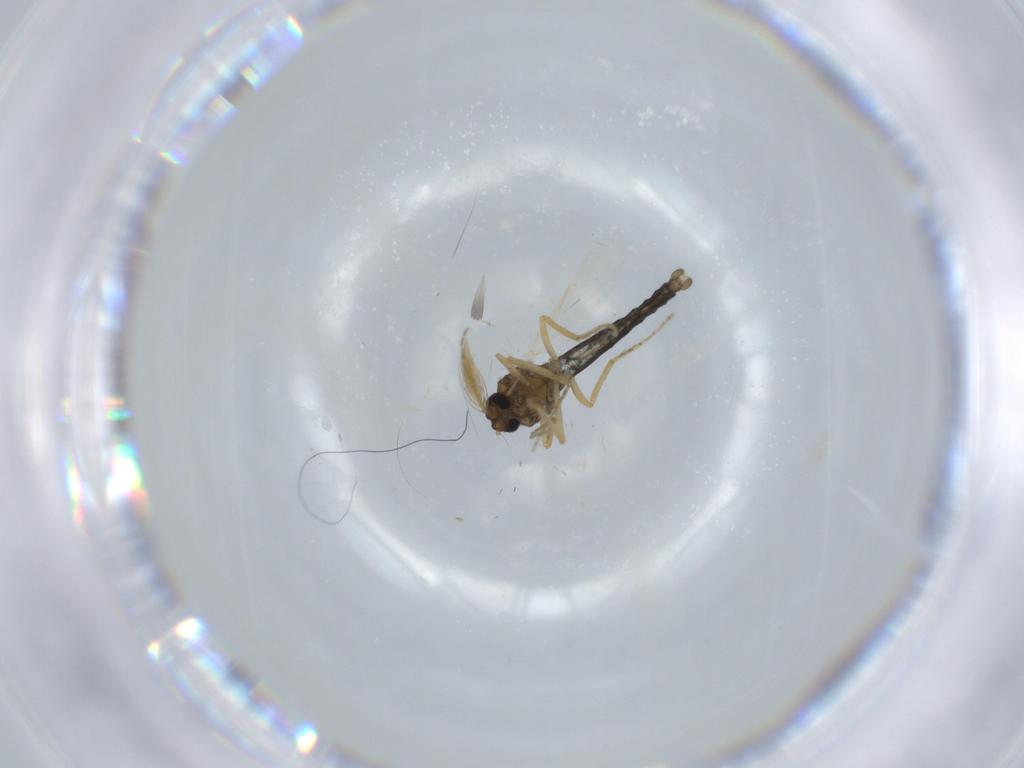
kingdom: Animalia
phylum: Arthropoda
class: Insecta
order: Diptera
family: Ceratopogonidae
